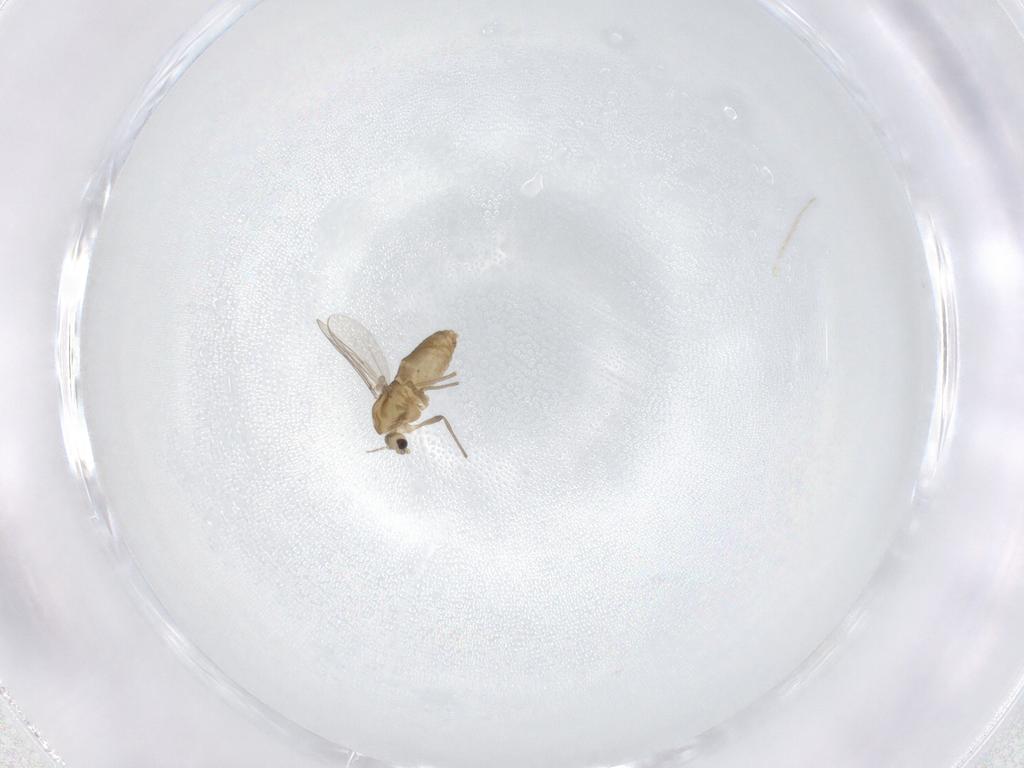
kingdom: Animalia
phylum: Arthropoda
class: Insecta
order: Diptera
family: Chironomidae
